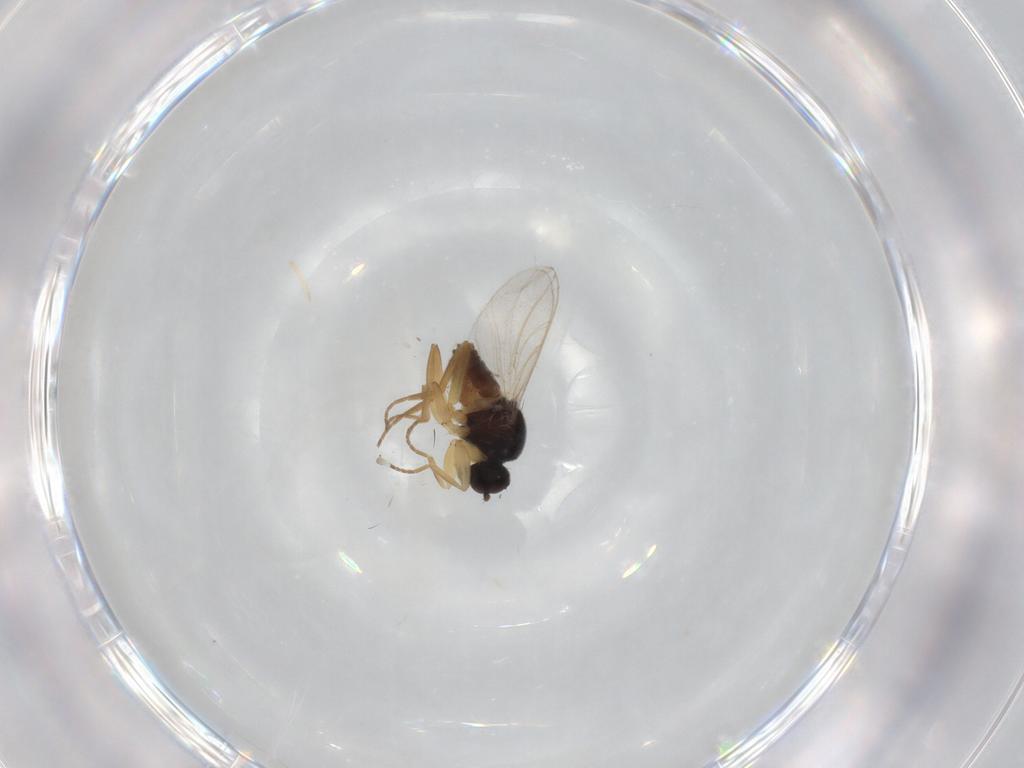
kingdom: Animalia
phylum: Arthropoda
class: Insecta
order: Diptera
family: Hybotidae
